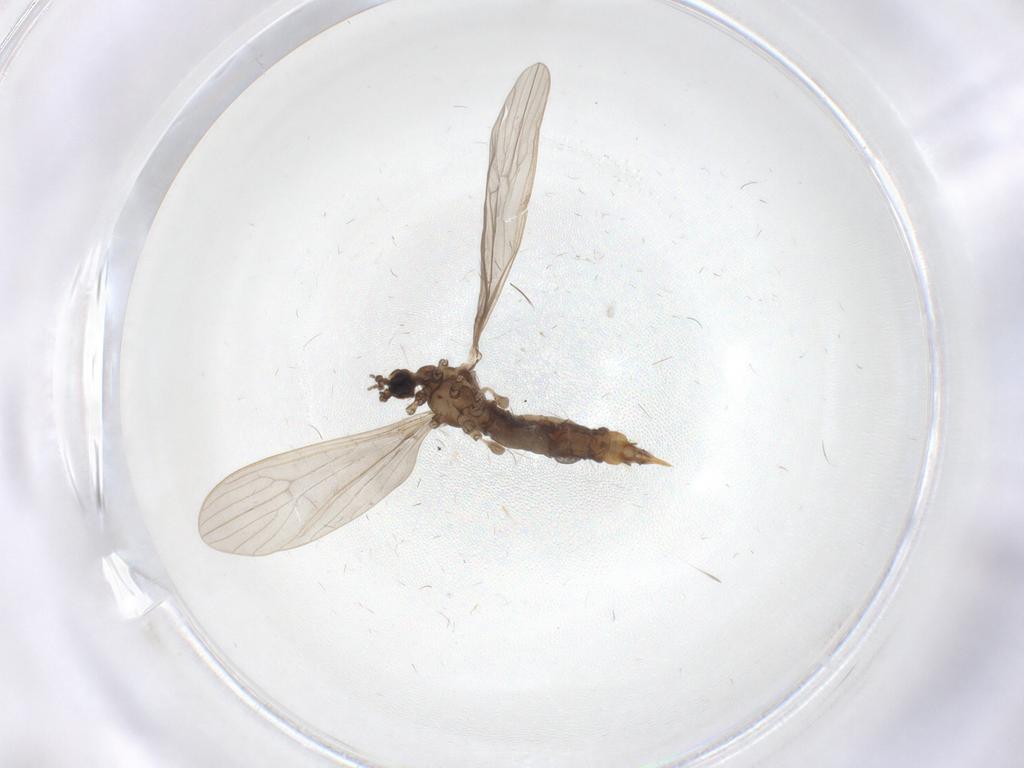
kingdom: Animalia
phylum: Arthropoda
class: Insecta
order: Diptera
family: Limoniidae
